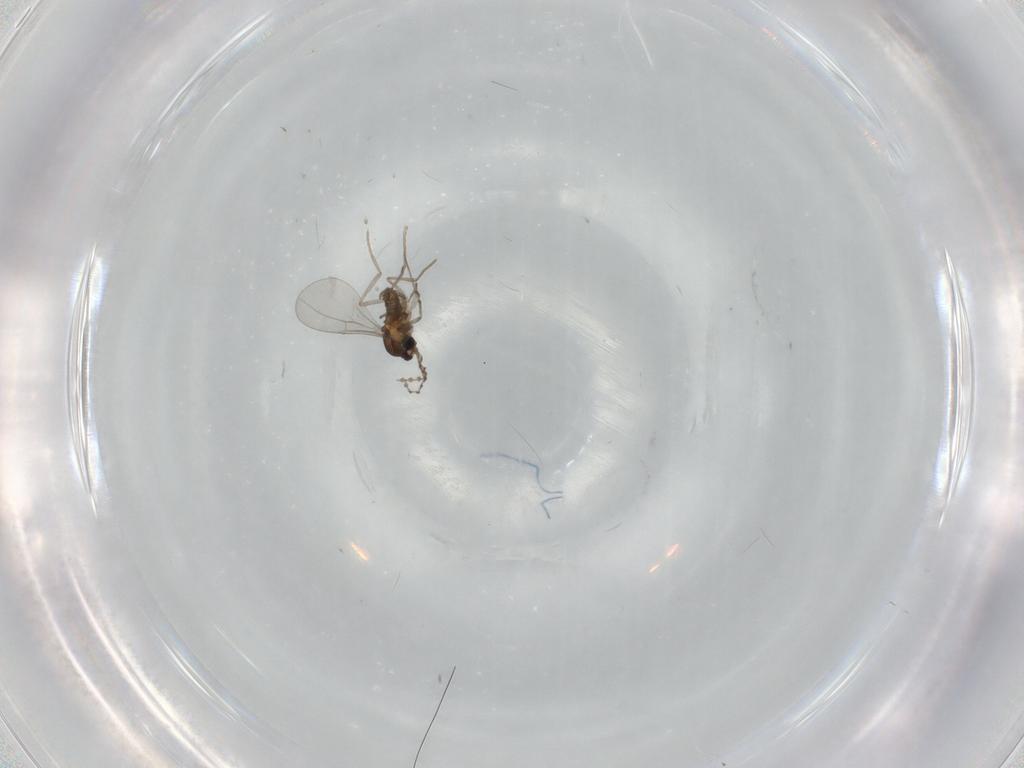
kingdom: Animalia
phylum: Arthropoda
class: Insecta
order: Diptera
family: Cecidomyiidae
